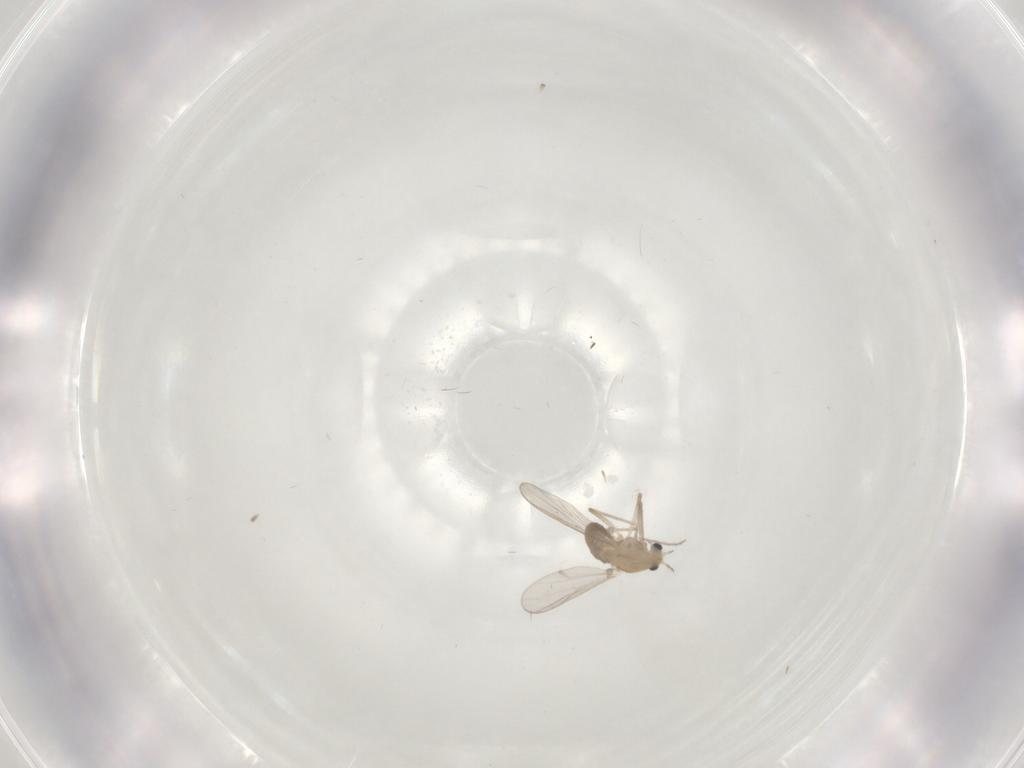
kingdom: Animalia
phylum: Arthropoda
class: Insecta
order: Diptera
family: Chironomidae
